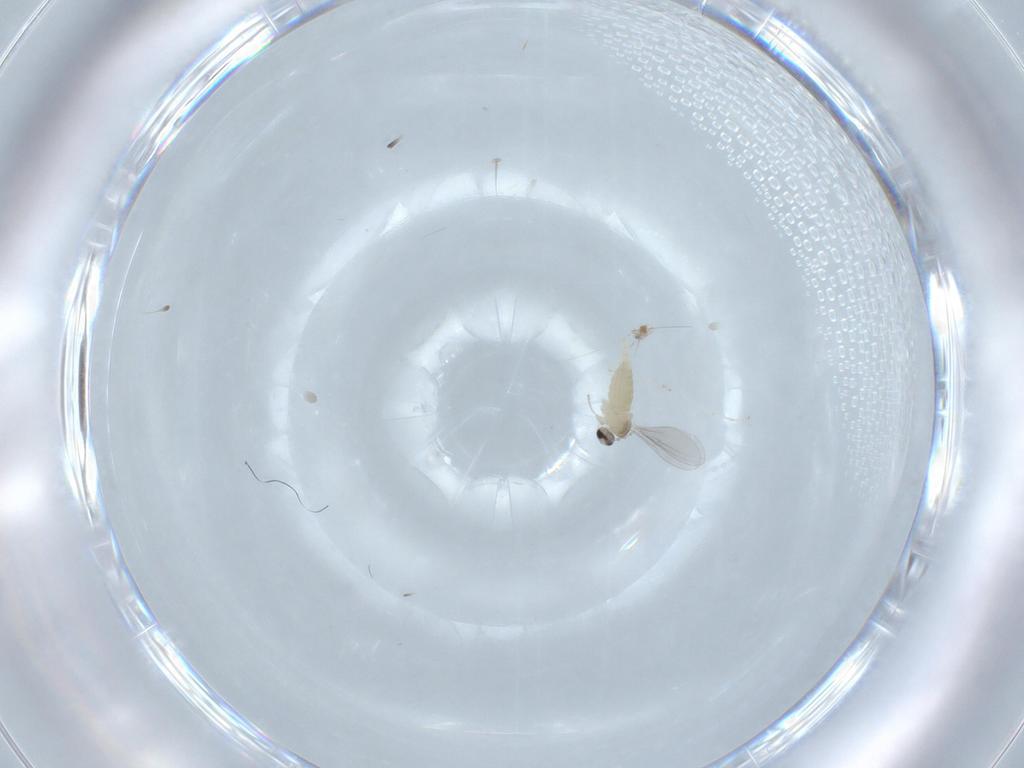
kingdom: Animalia
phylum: Arthropoda
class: Insecta
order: Diptera
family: Cecidomyiidae
